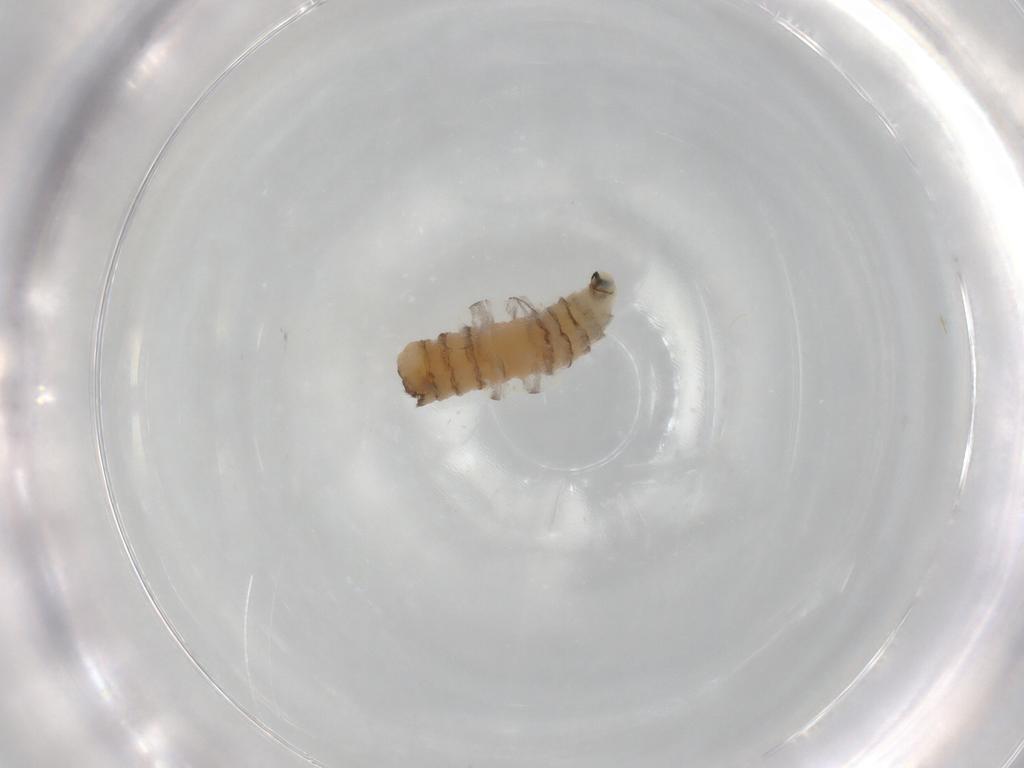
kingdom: Animalia
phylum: Arthropoda
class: Insecta
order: Diptera
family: Sarcophagidae
